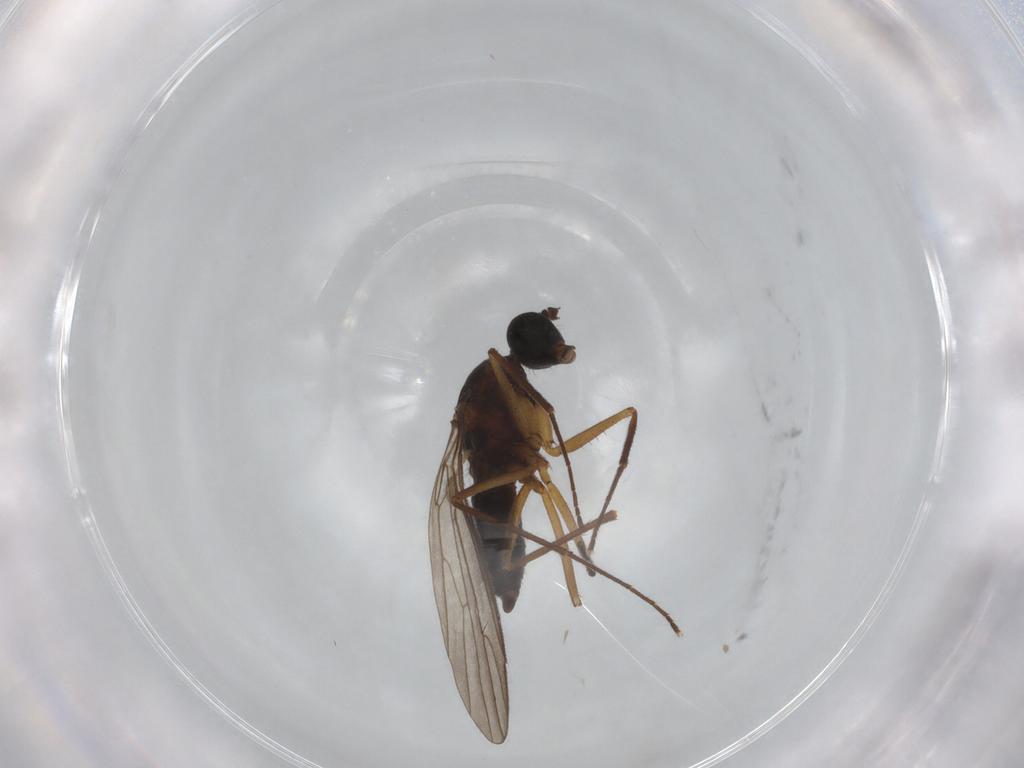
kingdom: Animalia
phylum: Arthropoda
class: Insecta
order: Diptera
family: Empididae
